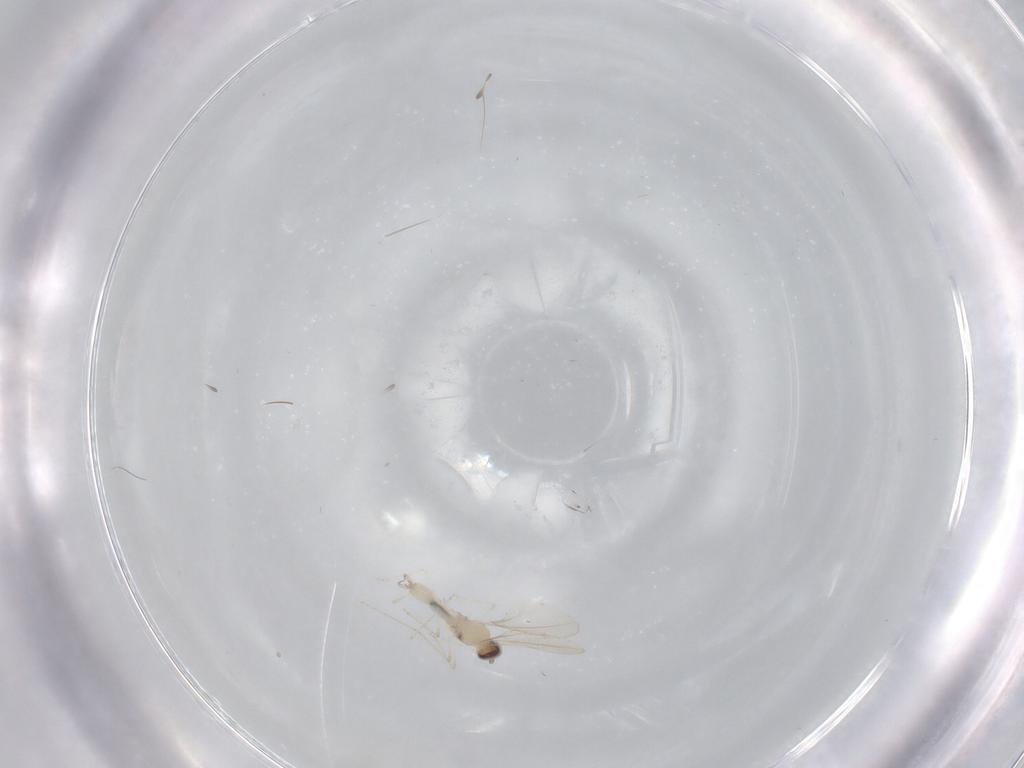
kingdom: Animalia
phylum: Arthropoda
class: Insecta
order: Diptera
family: Cecidomyiidae
